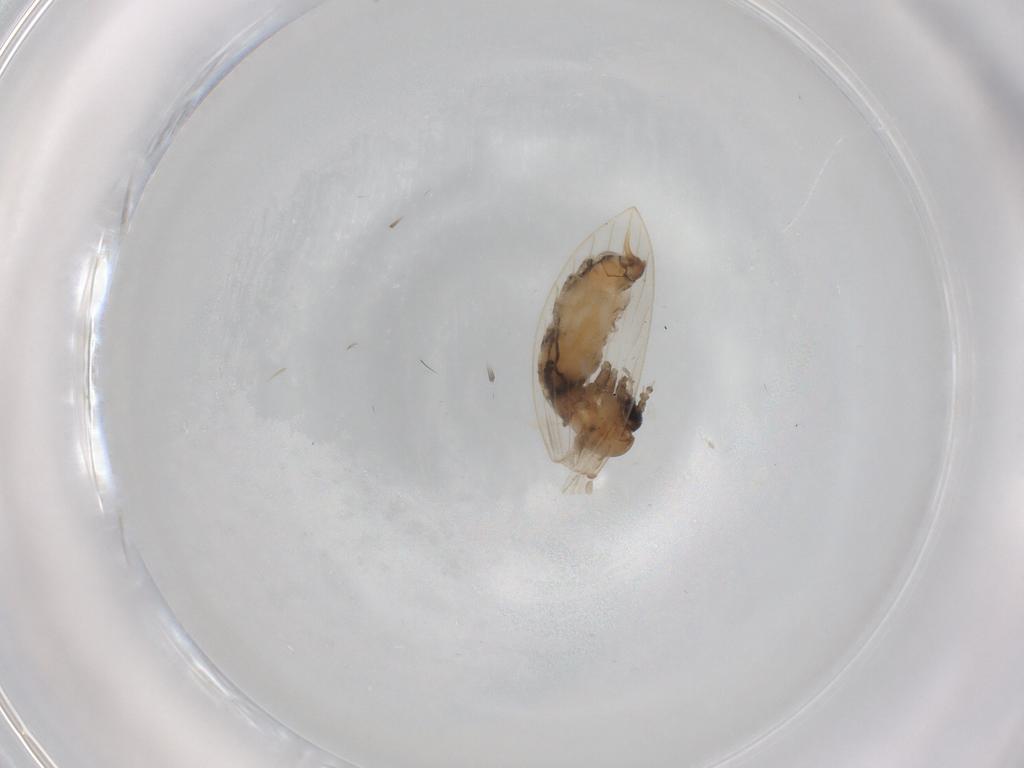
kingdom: Animalia
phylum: Arthropoda
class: Insecta
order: Diptera
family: Psychodidae
